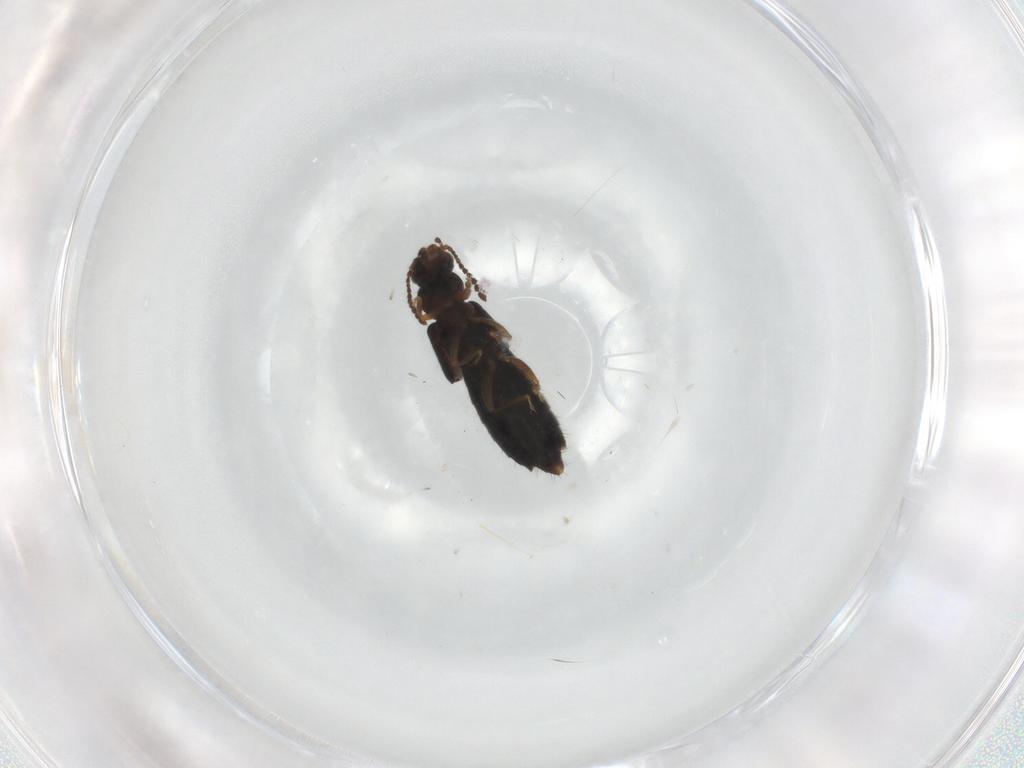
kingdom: Animalia
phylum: Arthropoda
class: Insecta
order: Coleoptera
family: Staphylinidae
